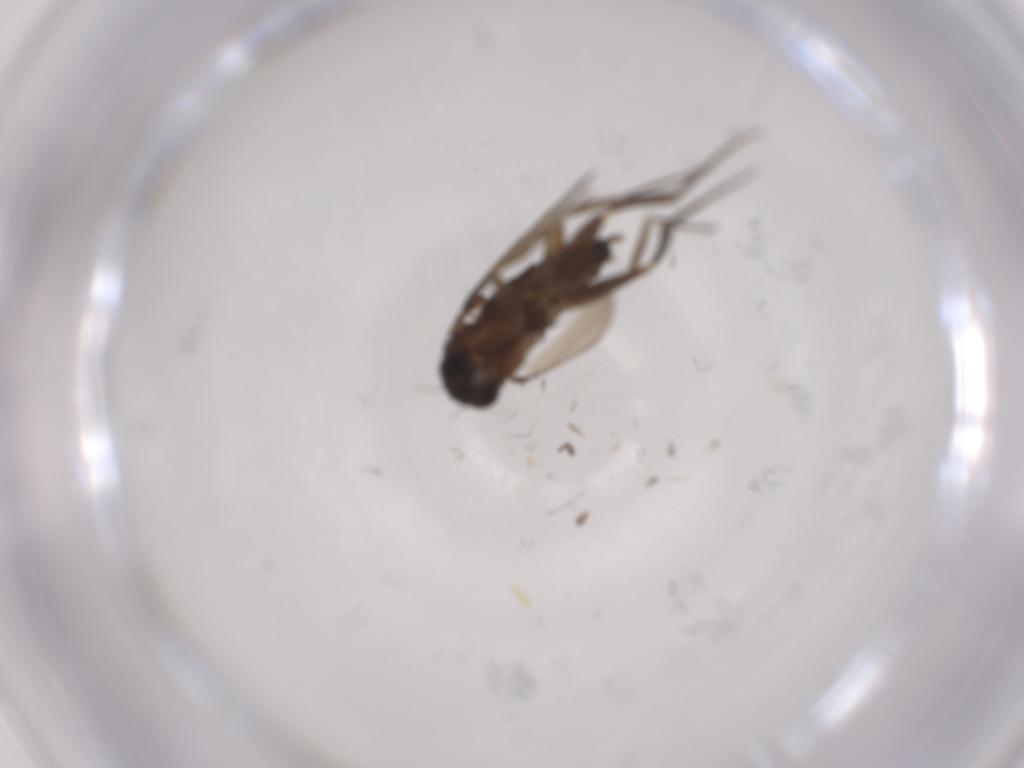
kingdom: Animalia
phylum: Arthropoda
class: Insecta
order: Diptera
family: Phoridae
